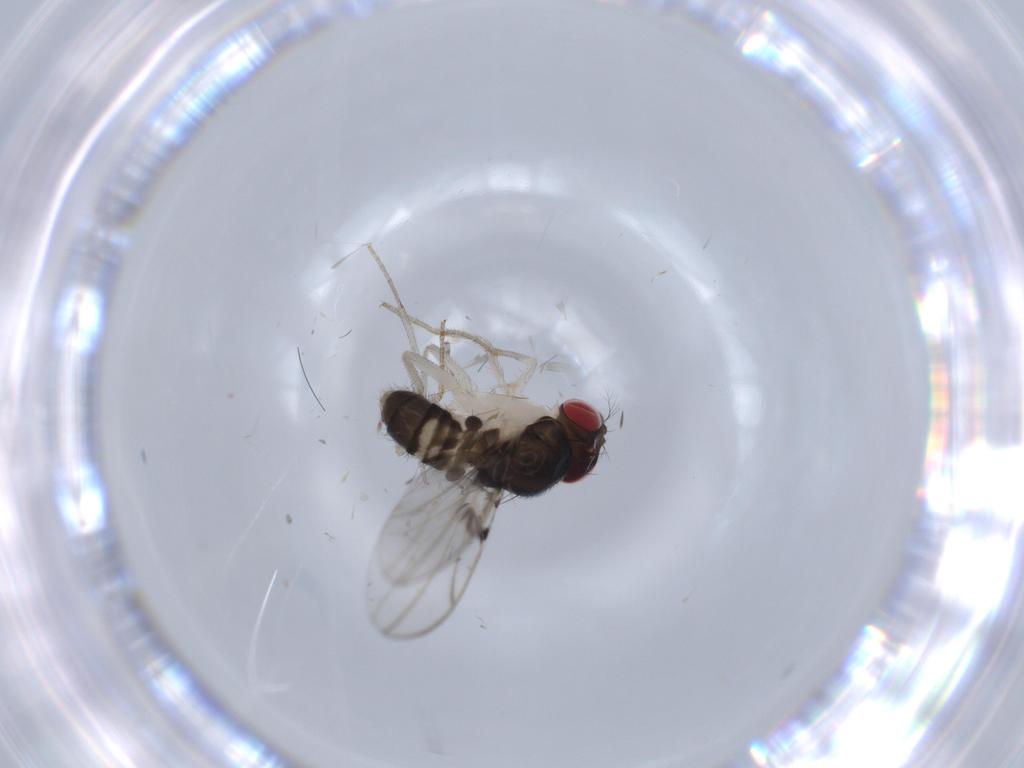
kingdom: Animalia
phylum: Arthropoda
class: Insecta
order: Diptera
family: Drosophilidae
